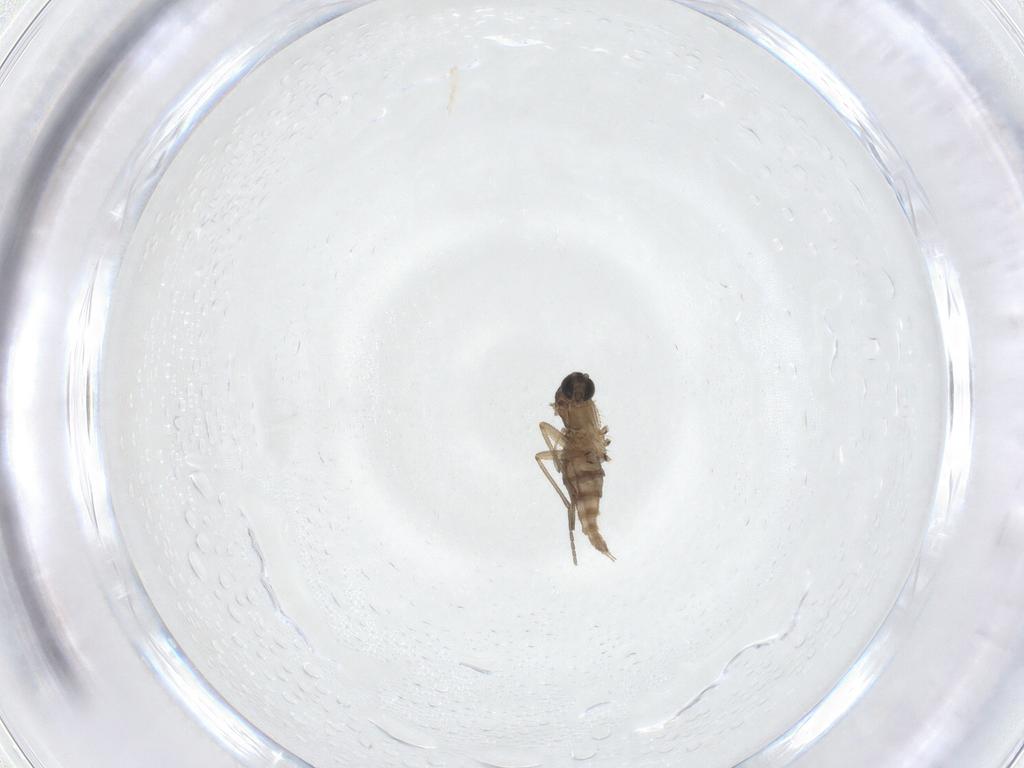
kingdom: Animalia
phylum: Arthropoda
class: Insecta
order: Diptera
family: Sciaridae
